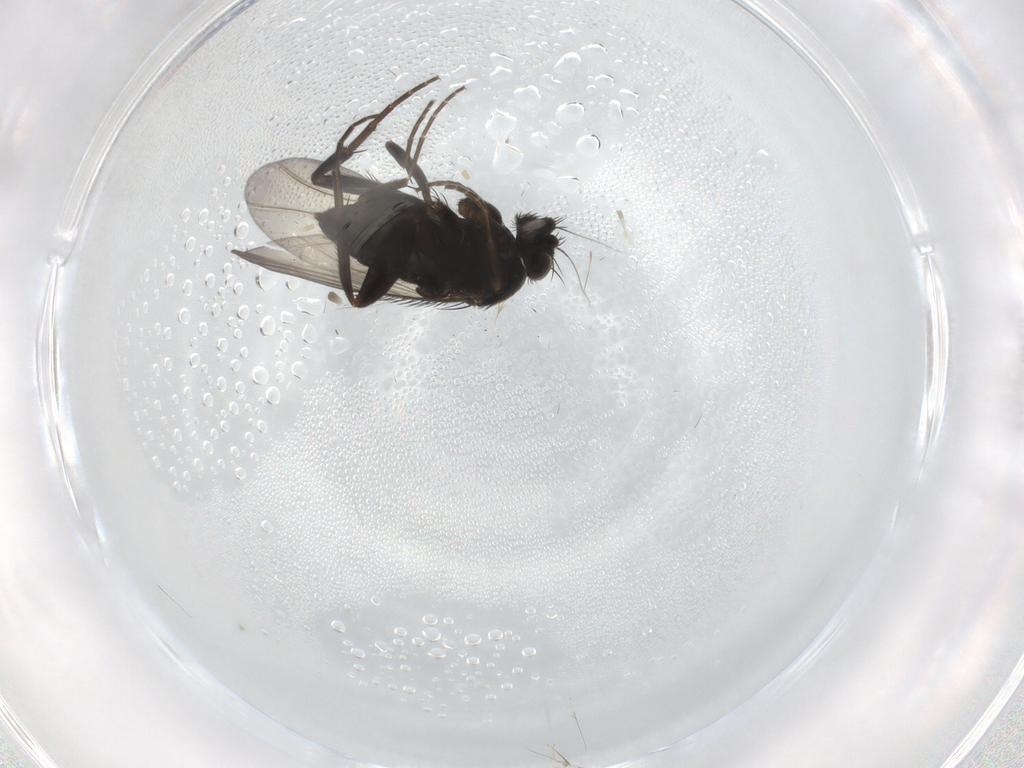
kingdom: Animalia
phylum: Arthropoda
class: Insecta
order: Diptera
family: Phoridae
